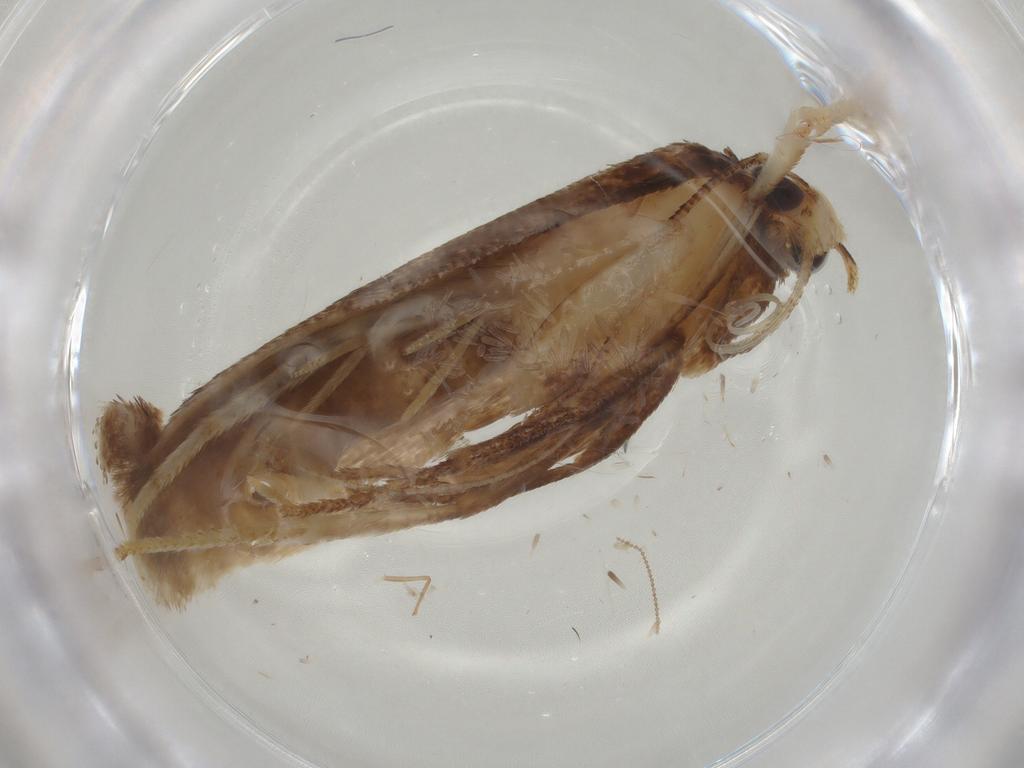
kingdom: Animalia
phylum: Arthropoda
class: Insecta
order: Lepidoptera
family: Gelechiidae
